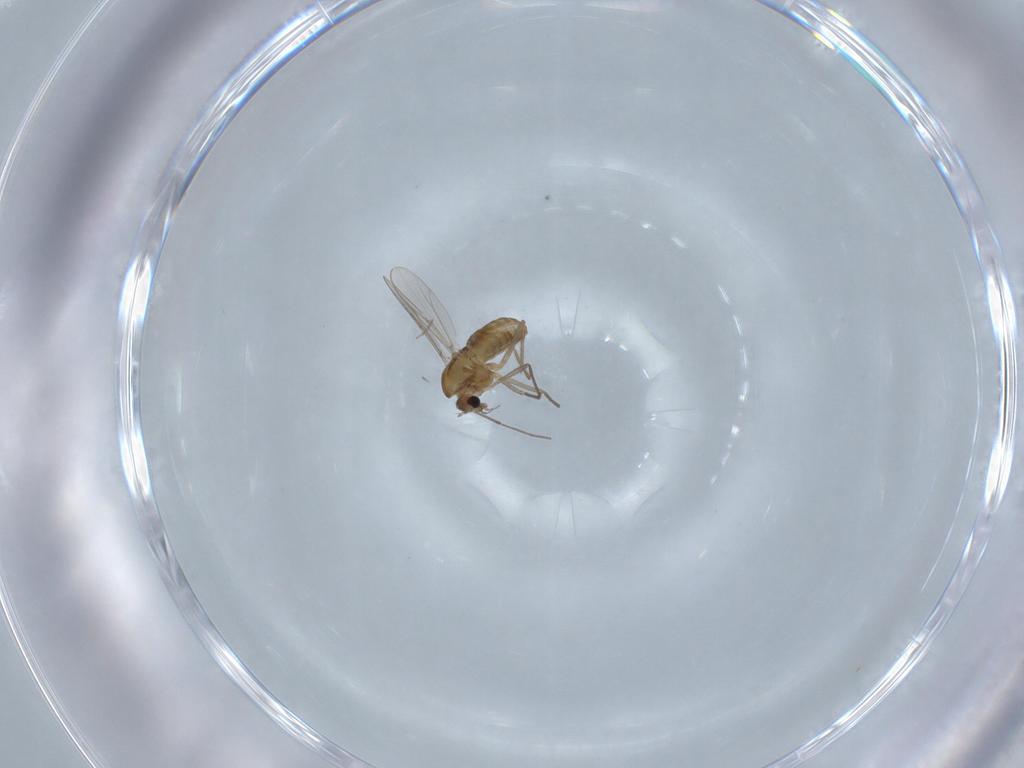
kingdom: Animalia
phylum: Arthropoda
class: Insecta
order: Diptera
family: Chironomidae
